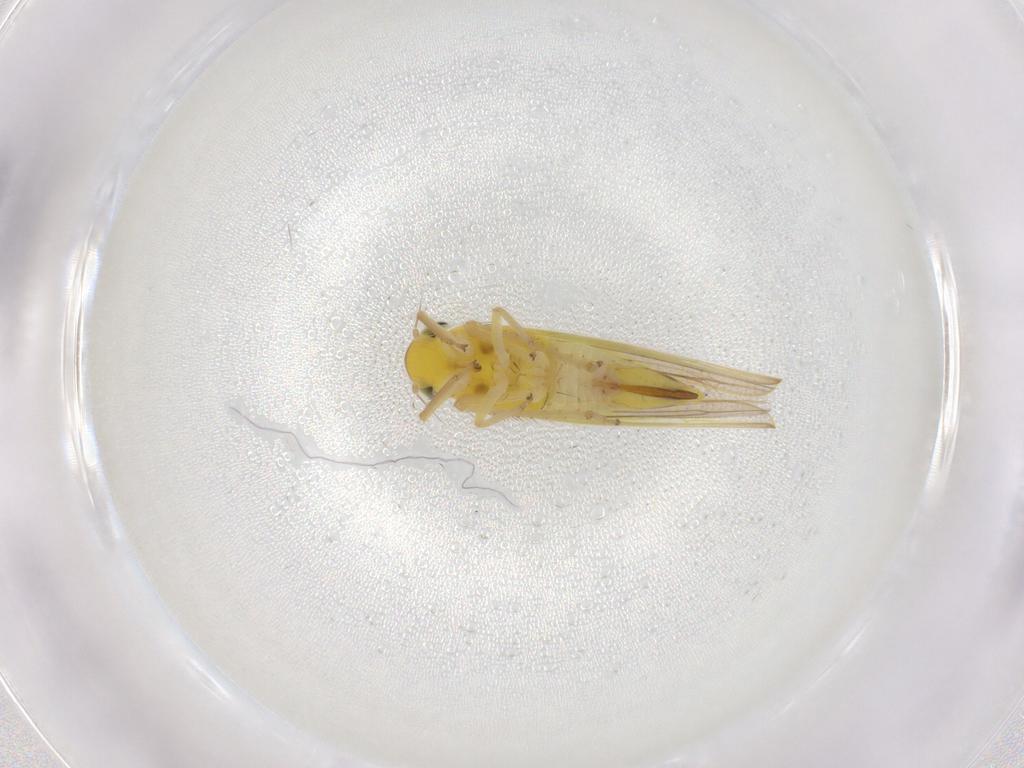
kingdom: Animalia
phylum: Arthropoda
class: Insecta
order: Hemiptera
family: Cicadellidae
